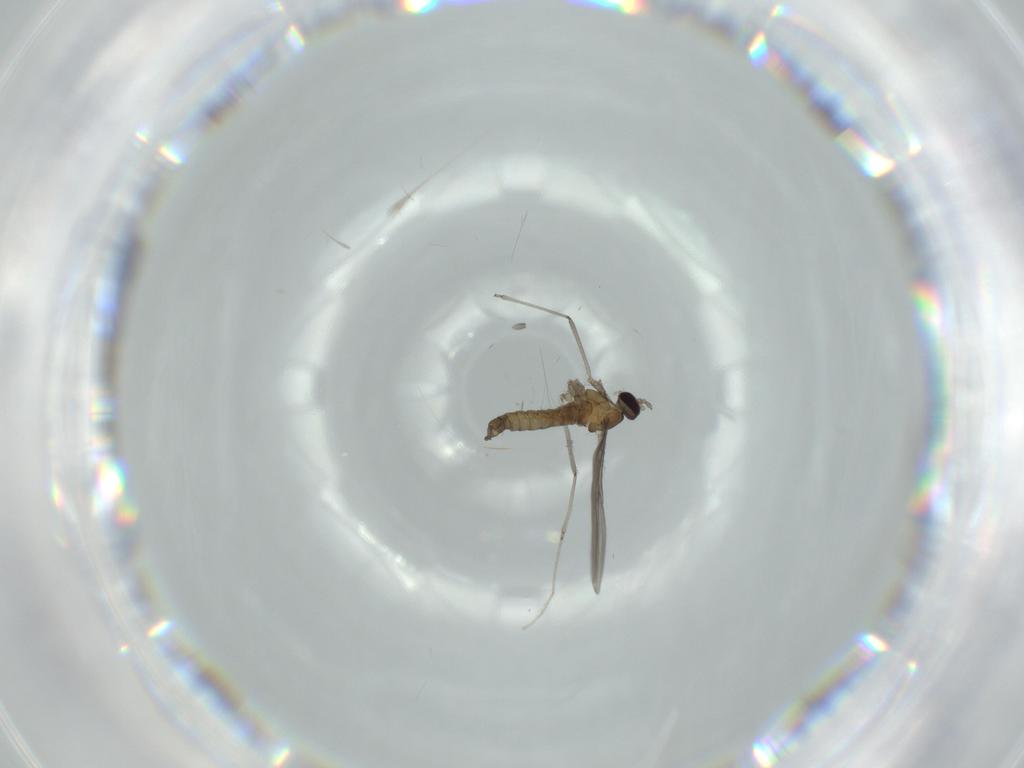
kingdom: Animalia
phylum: Arthropoda
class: Insecta
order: Diptera
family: Cecidomyiidae
